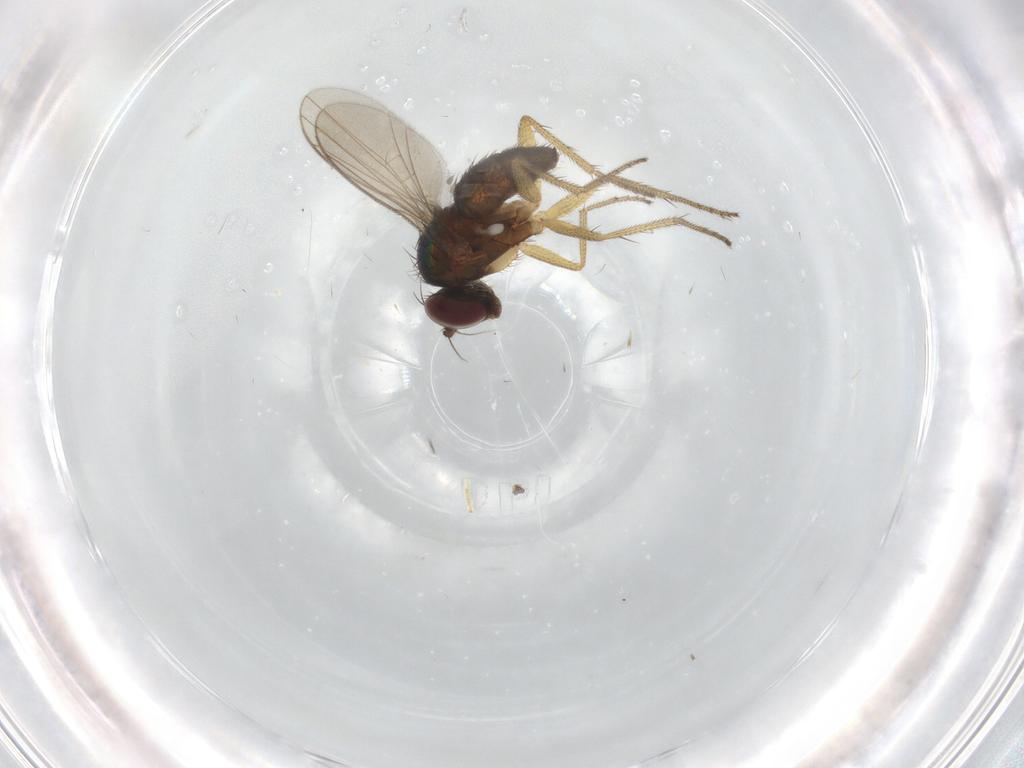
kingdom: Animalia
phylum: Arthropoda
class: Insecta
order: Diptera
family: Dolichopodidae
